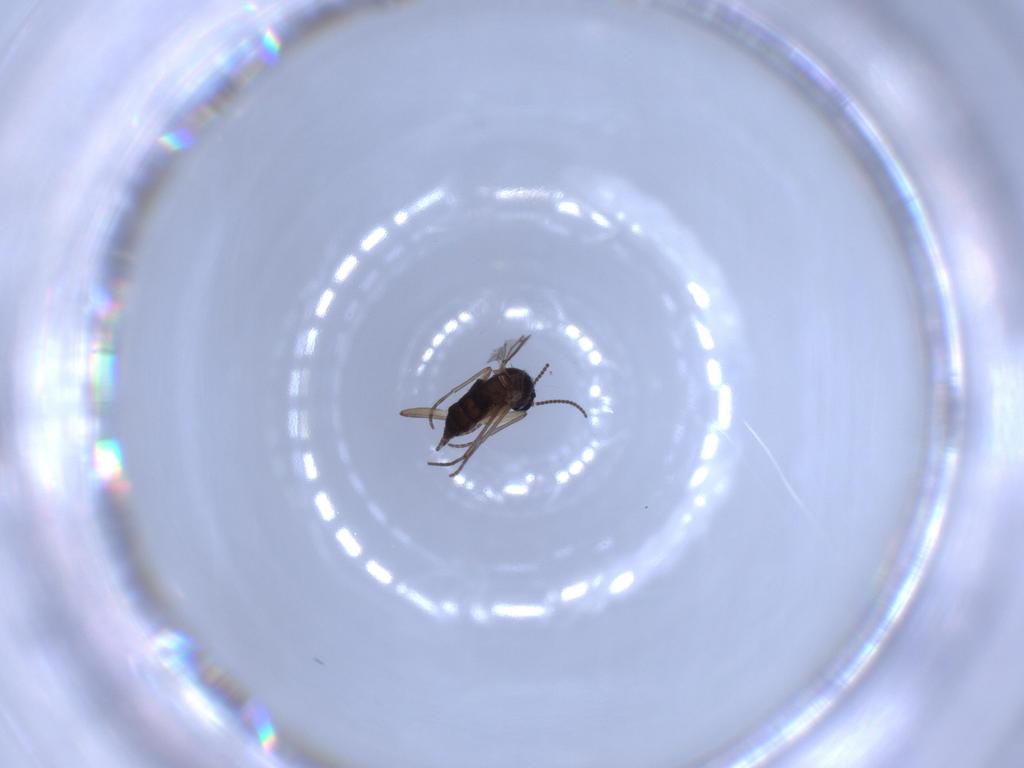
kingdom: Animalia
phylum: Arthropoda
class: Insecta
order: Diptera
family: Sciaridae
